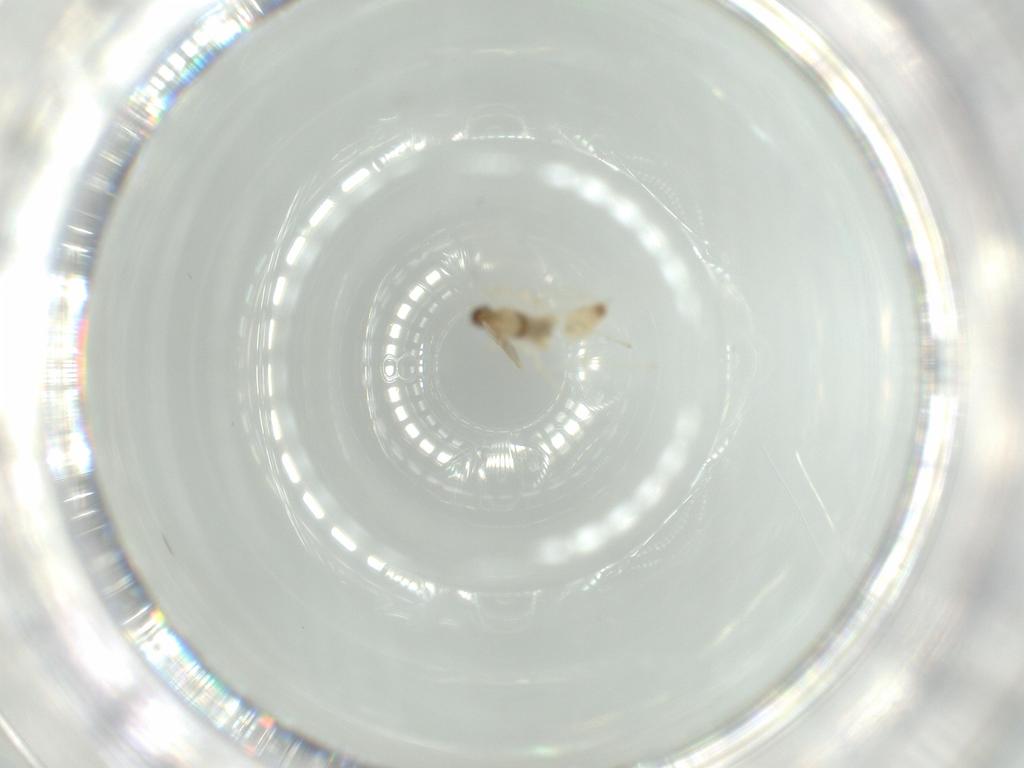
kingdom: Animalia
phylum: Arthropoda
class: Insecta
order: Diptera
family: Cecidomyiidae
